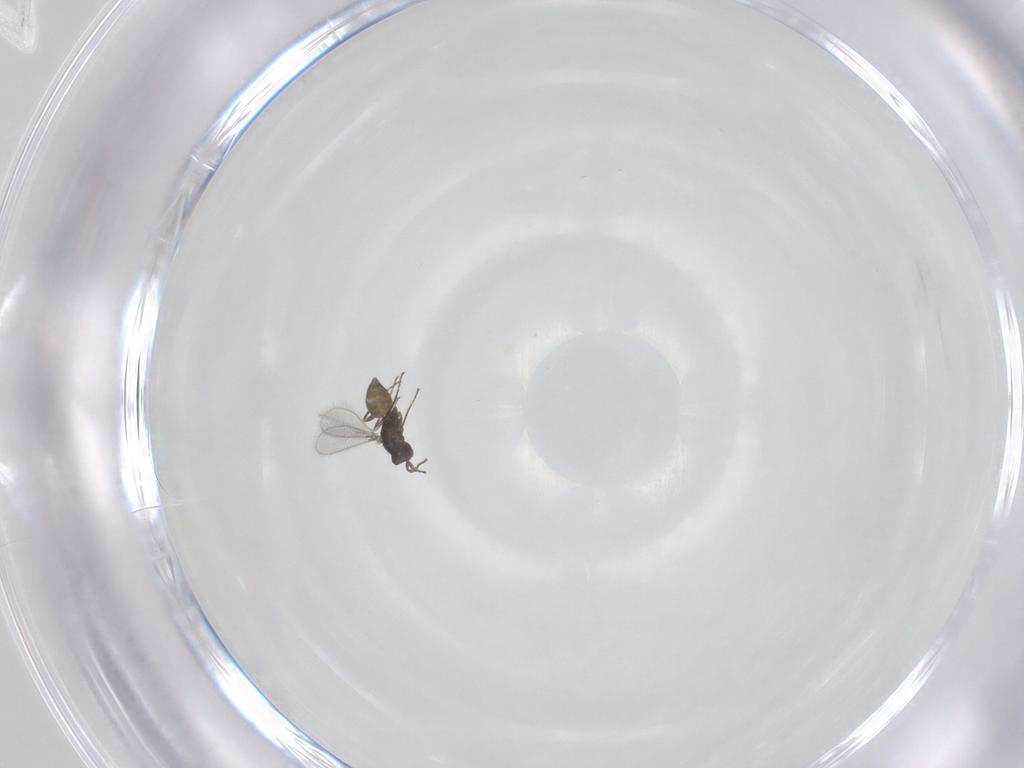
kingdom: Animalia
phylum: Arthropoda
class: Insecta
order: Hymenoptera
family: Mymaridae
